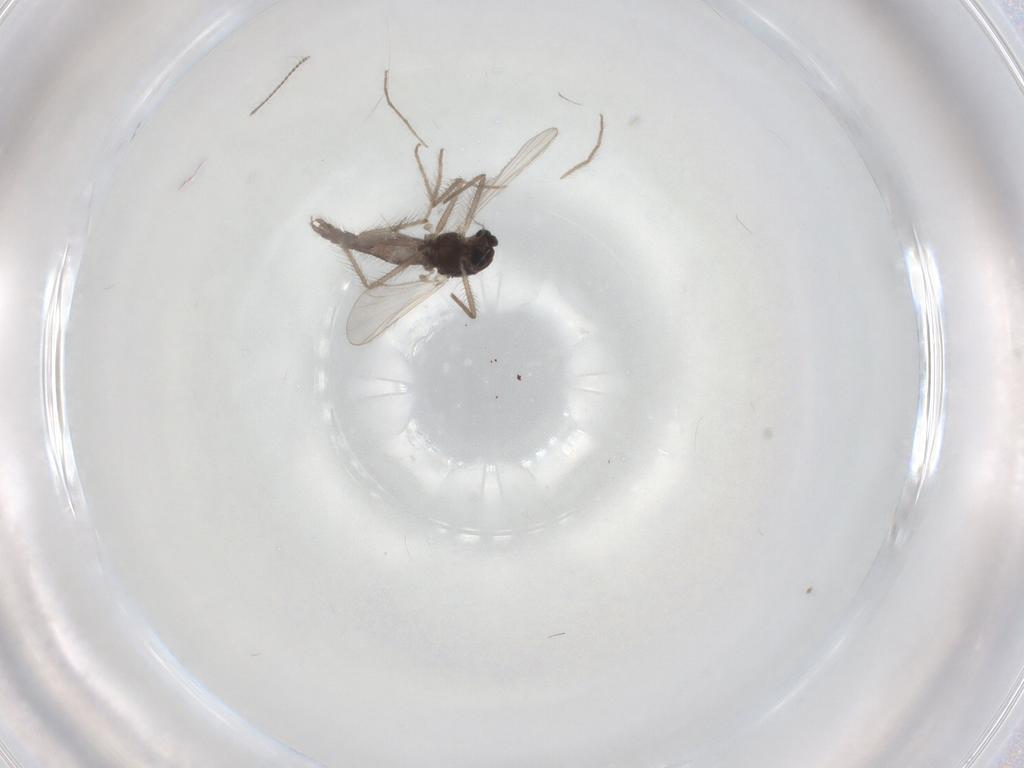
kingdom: Animalia
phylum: Arthropoda
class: Insecta
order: Diptera
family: Chironomidae
